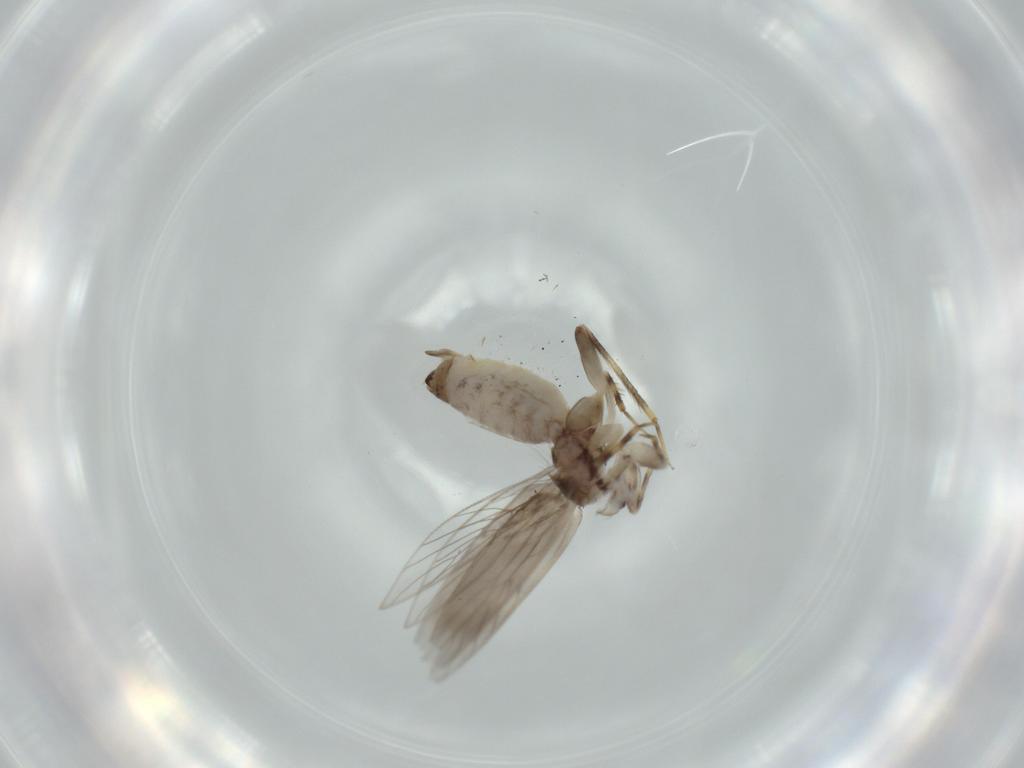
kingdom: Animalia
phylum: Arthropoda
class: Insecta
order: Psocodea
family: Lepidopsocidae
